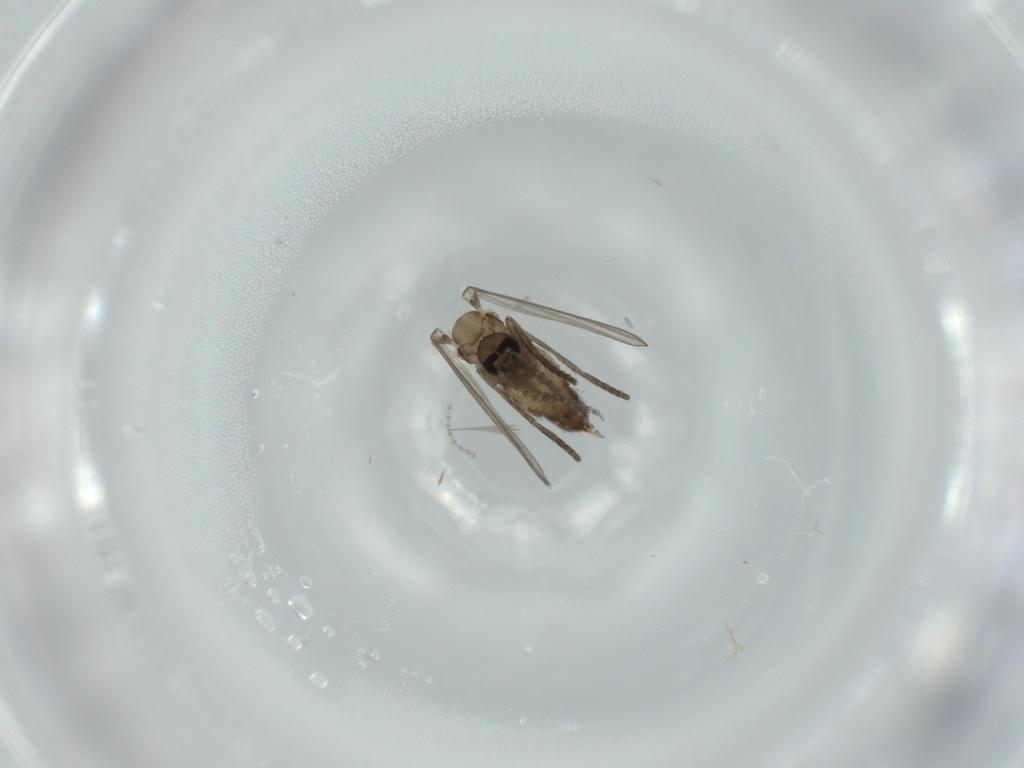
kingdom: Animalia
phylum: Arthropoda
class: Insecta
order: Diptera
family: Psychodidae
